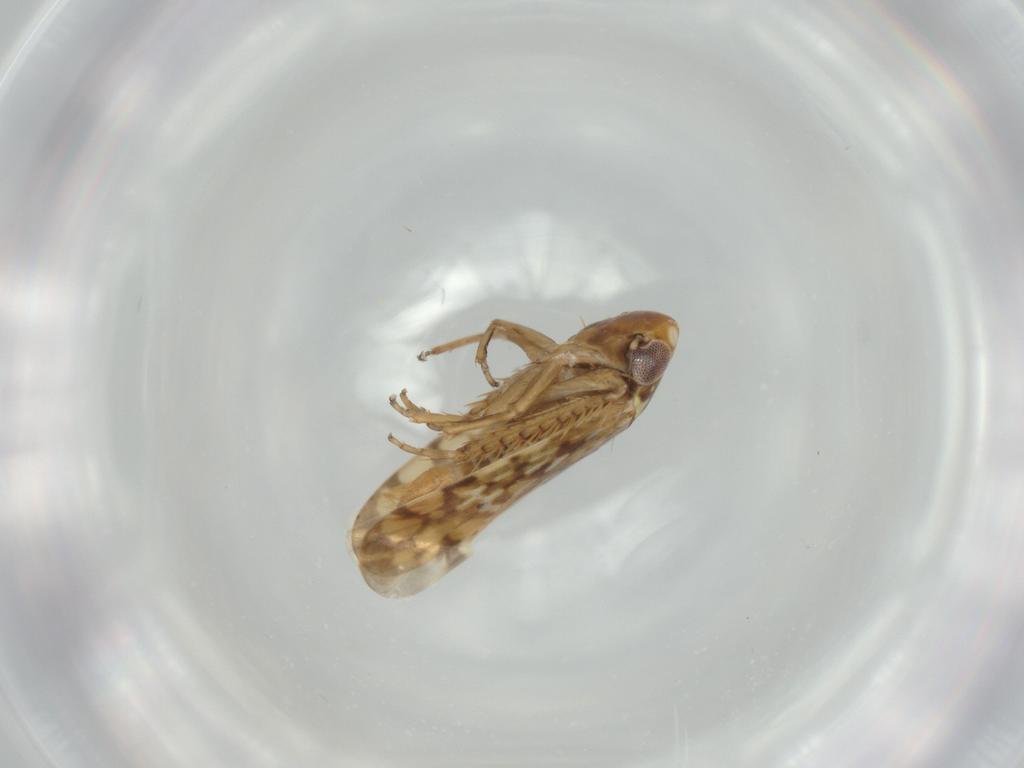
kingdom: Animalia
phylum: Arthropoda
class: Insecta
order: Hemiptera
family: Cicadellidae
